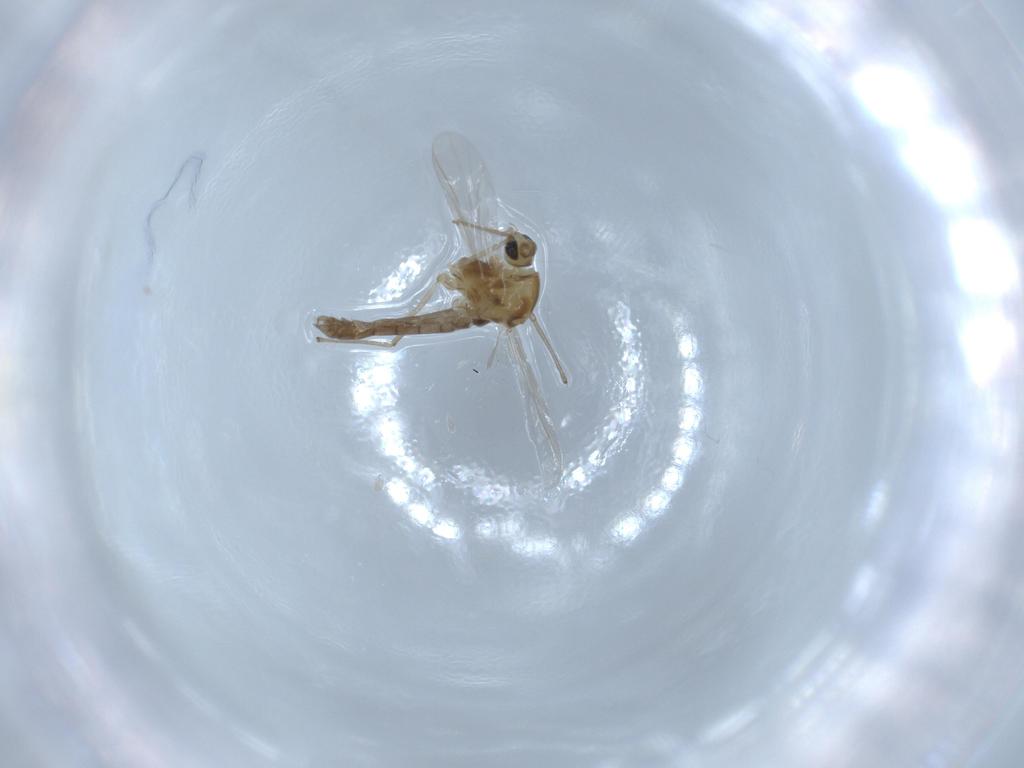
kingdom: Animalia
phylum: Arthropoda
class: Insecta
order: Diptera
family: Chironomidae
